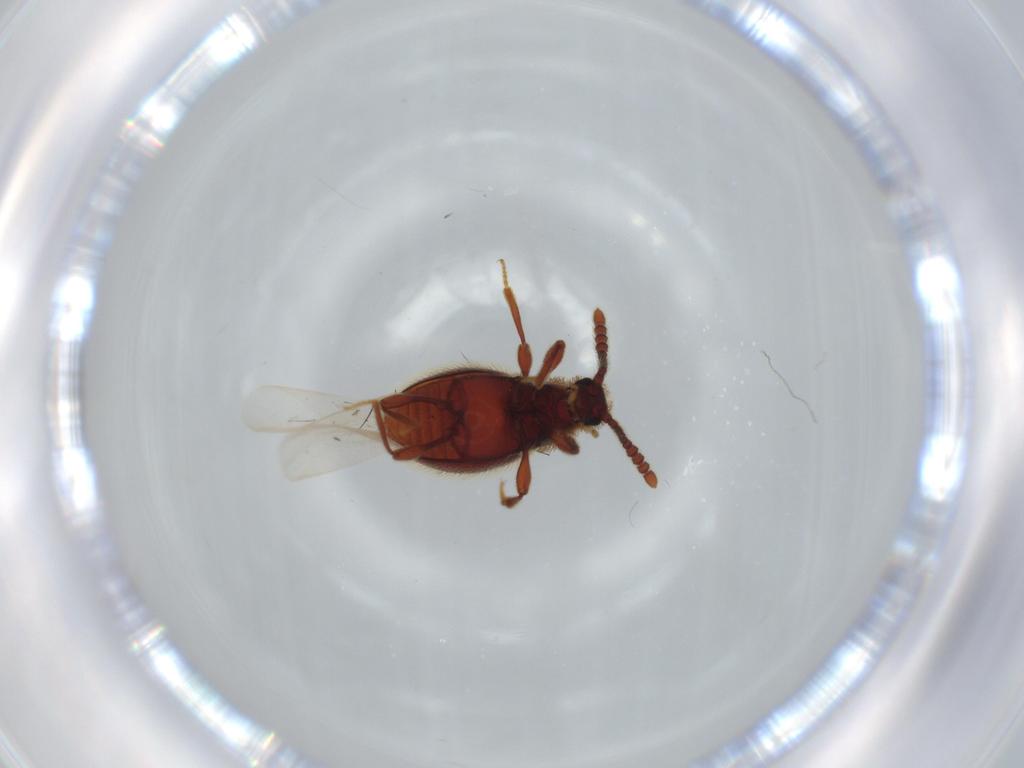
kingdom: Animalia
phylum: Arthropoda
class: Insecta
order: Coleoptera
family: Staphylinidae
